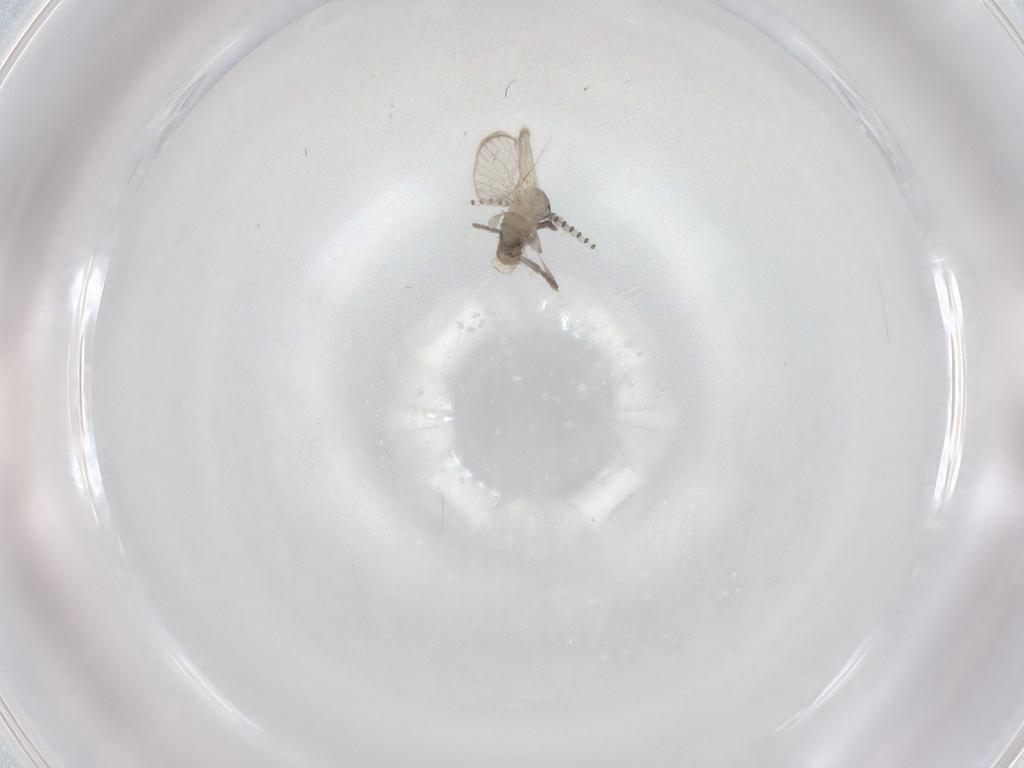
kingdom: Animalia
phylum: Arthropoda
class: Insecta
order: Diptera
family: Psychodidae
